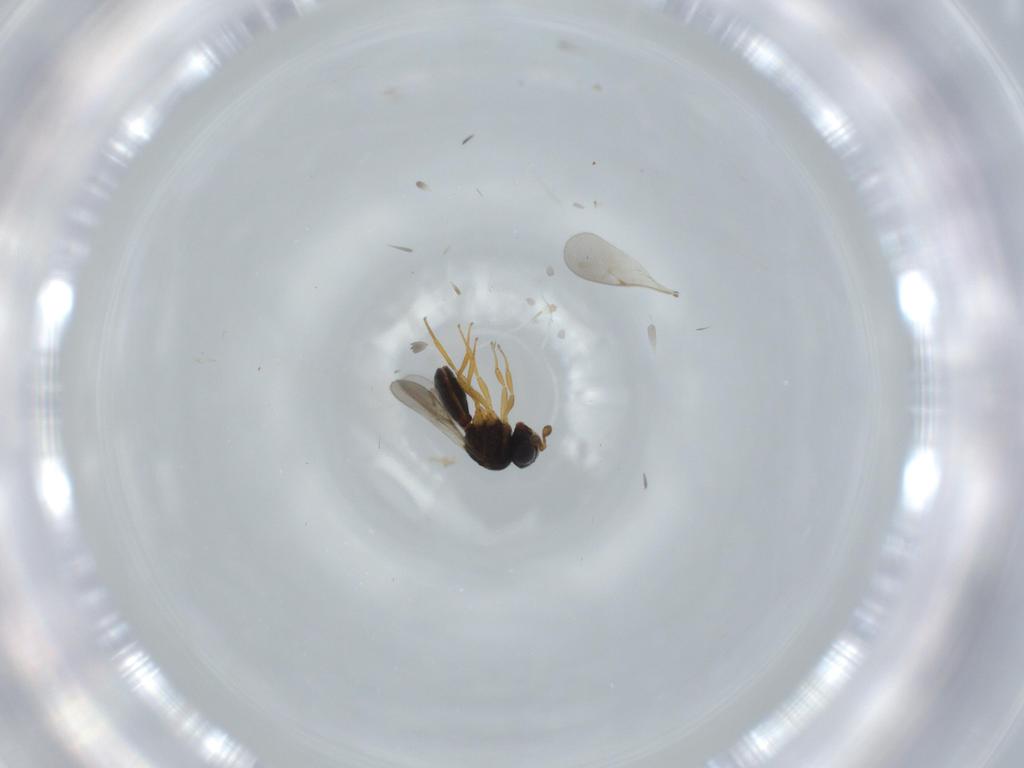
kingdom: Animalia
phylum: Arthropoda
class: Insecta
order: Hymenoptera
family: Scelionidae
